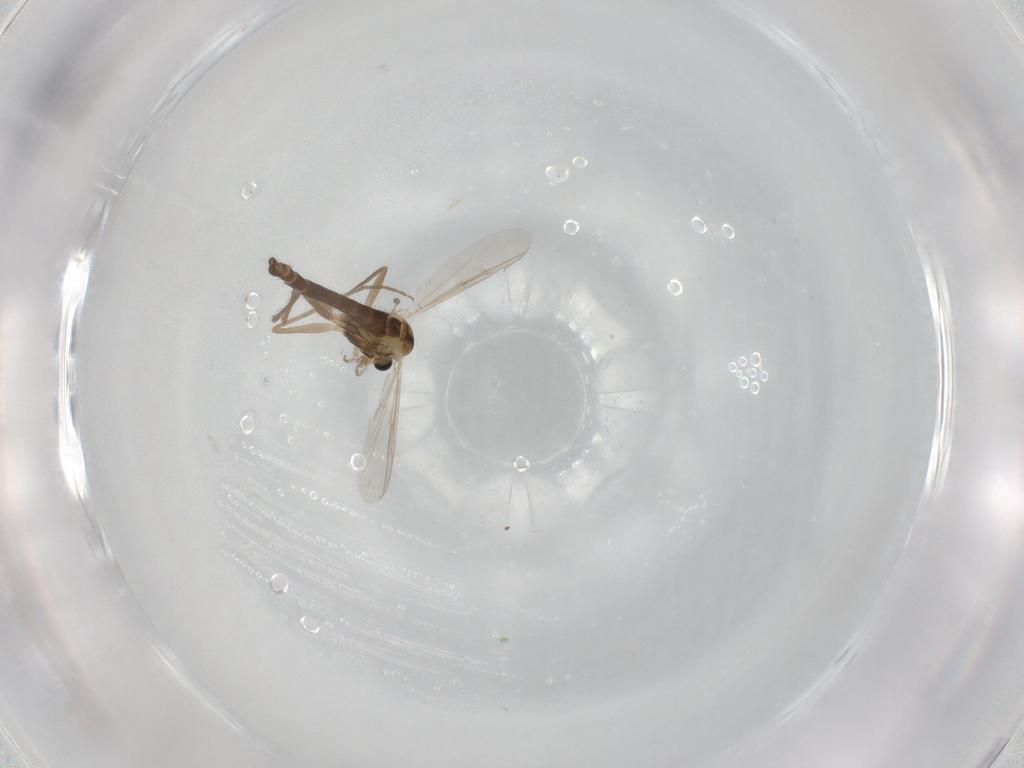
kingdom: Animalia
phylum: Arthropoda
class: Insecta
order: Diptera
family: Chironomidae
